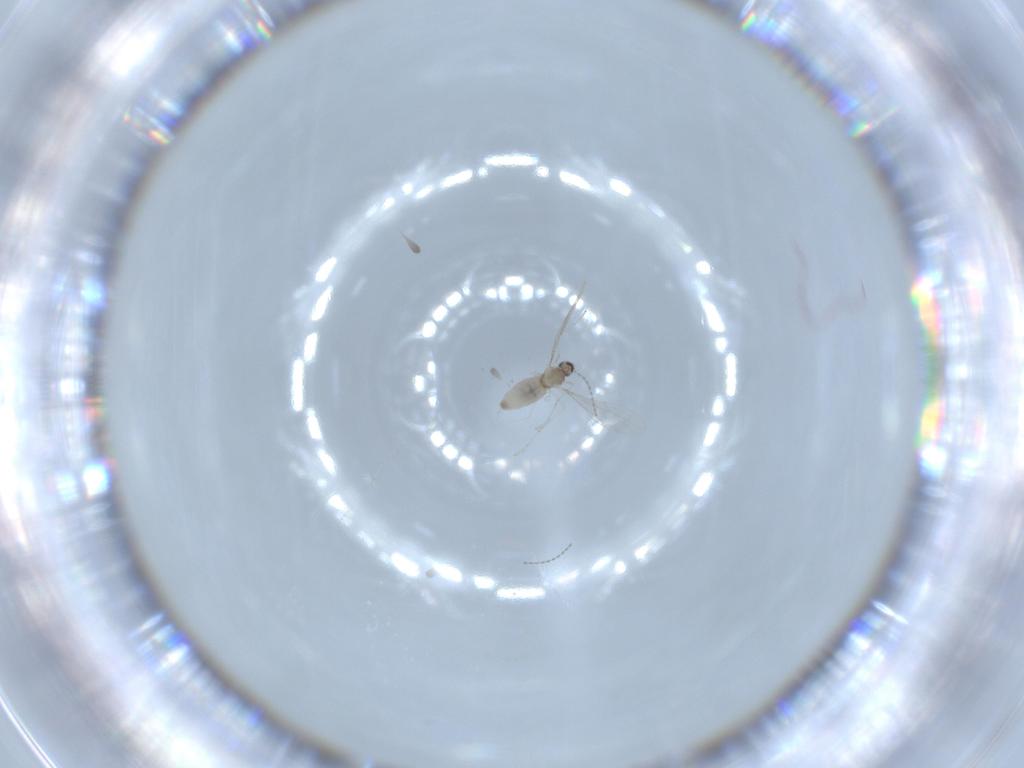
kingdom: Animalia
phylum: Arthropoda
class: Insecta
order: Diptera
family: Cecidomyiidae
